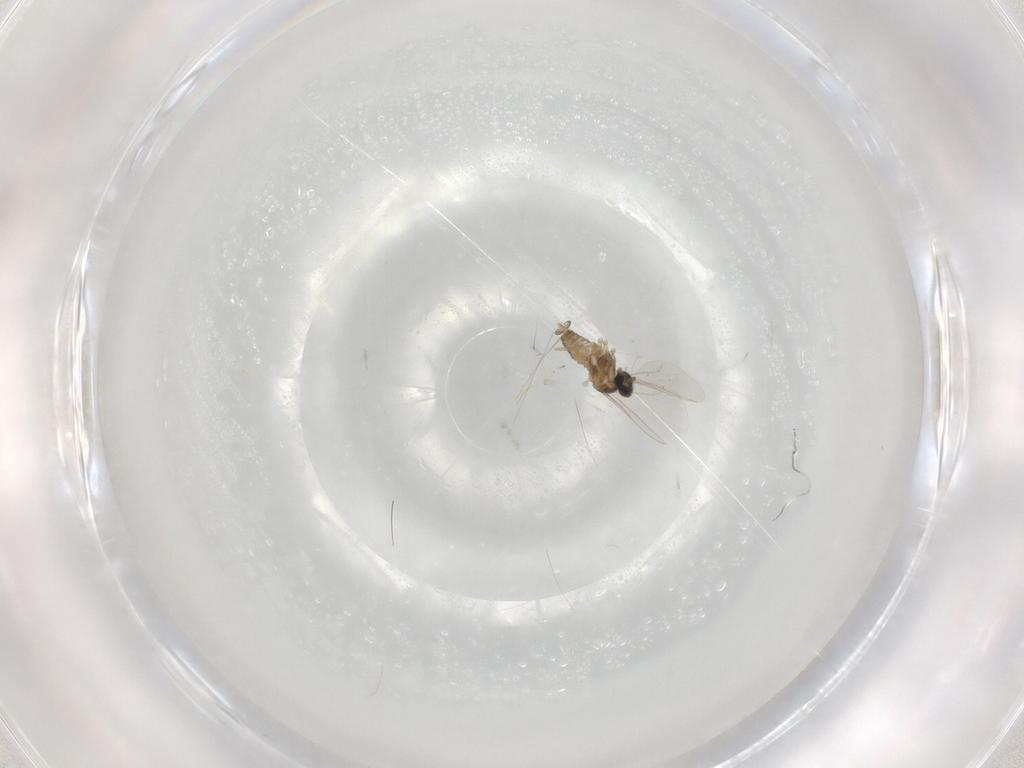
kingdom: Animalia
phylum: Arthropoda
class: Insecta
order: Diptera
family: Cecidomyiidae
